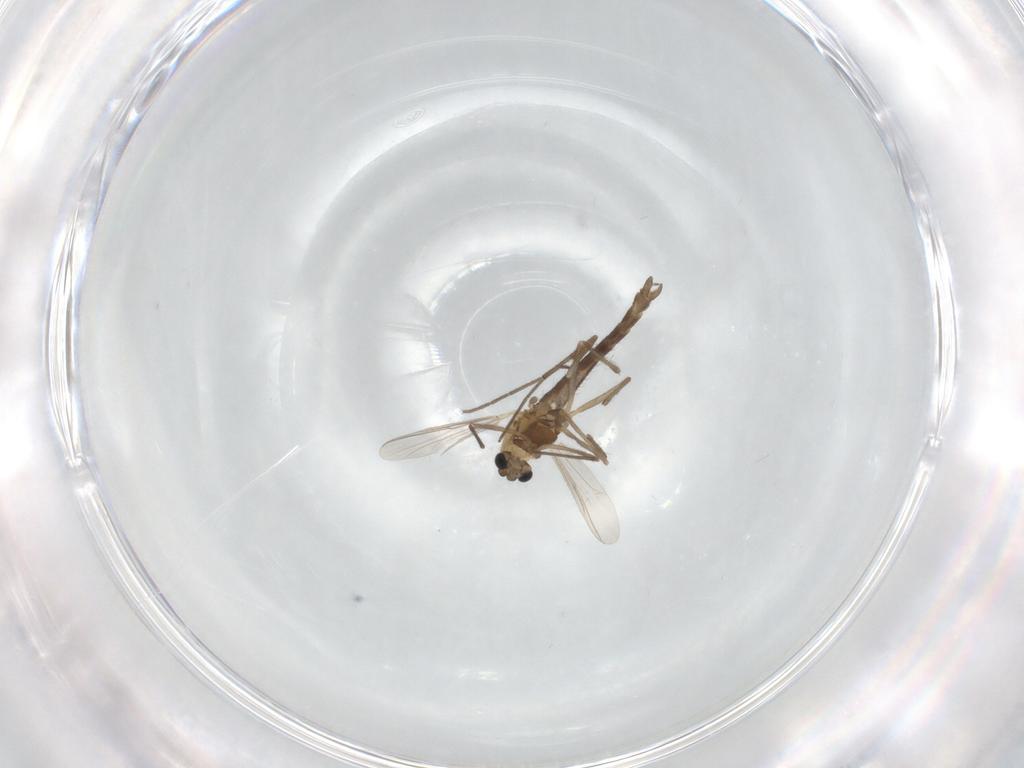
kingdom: Animalia
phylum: Arthropoda
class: Insecta
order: Diptera
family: Chironomidae
